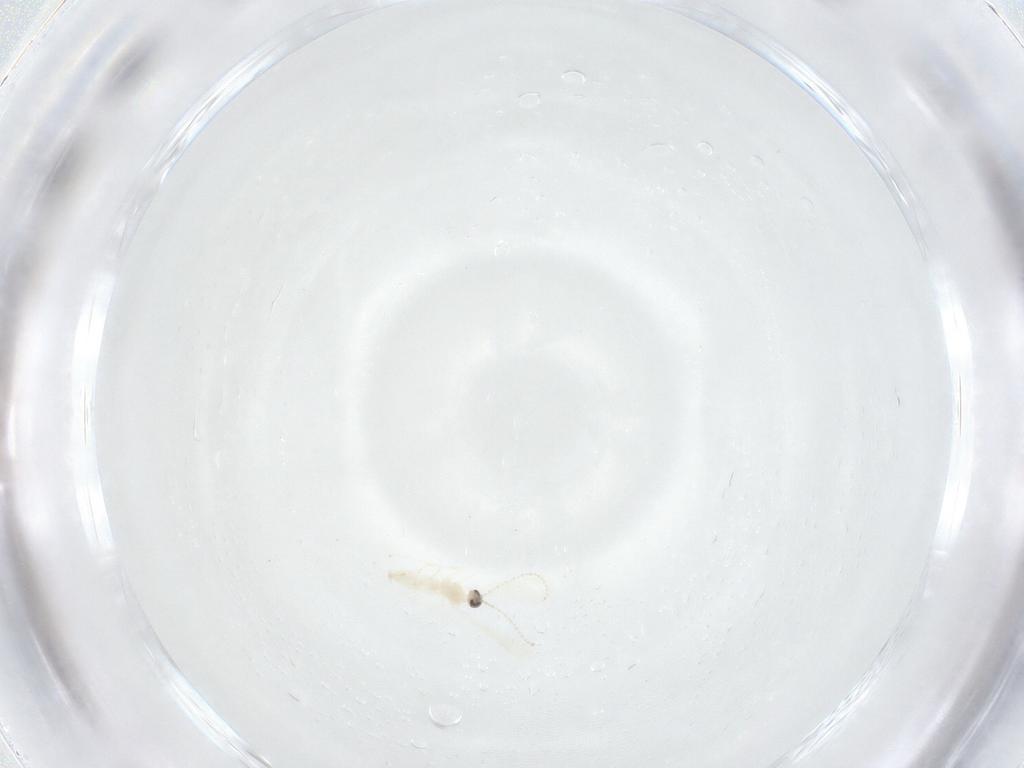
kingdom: Animalia
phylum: Arthropoda
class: Insecta
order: Diptera
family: Cecidomyiidae
